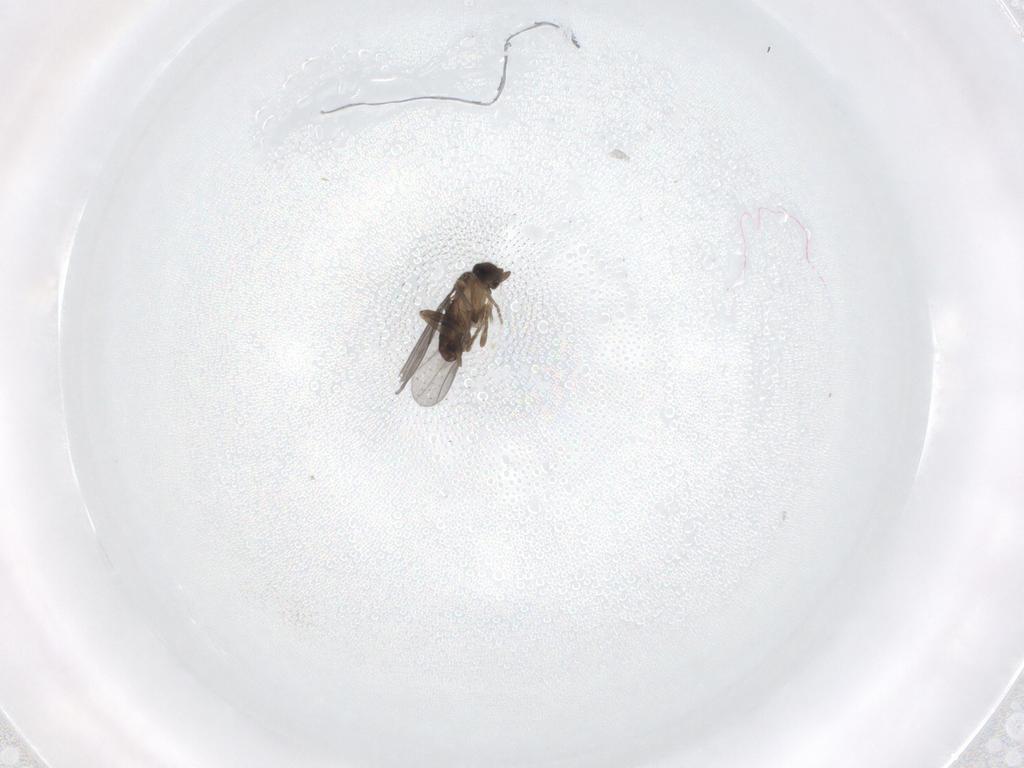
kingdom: Animalia
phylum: Arthropoda
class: Insecta
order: Diptera
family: Limoniidae
